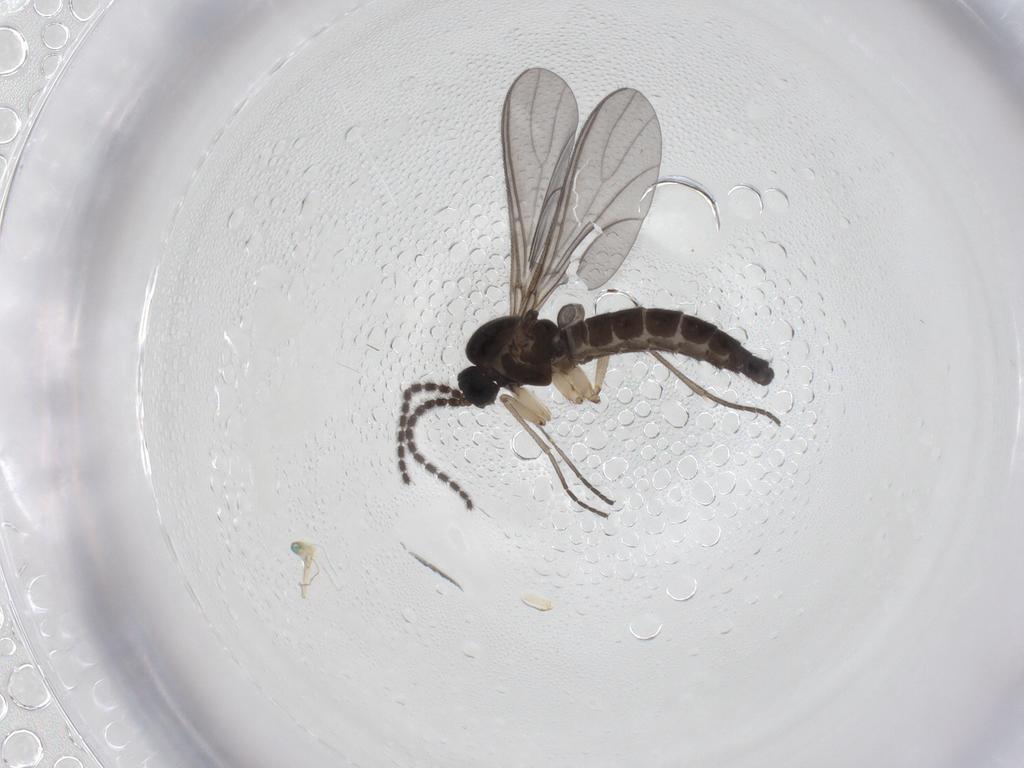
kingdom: Animalia
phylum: Arthropoda
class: Insecta
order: Diptera
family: Sciaridae
